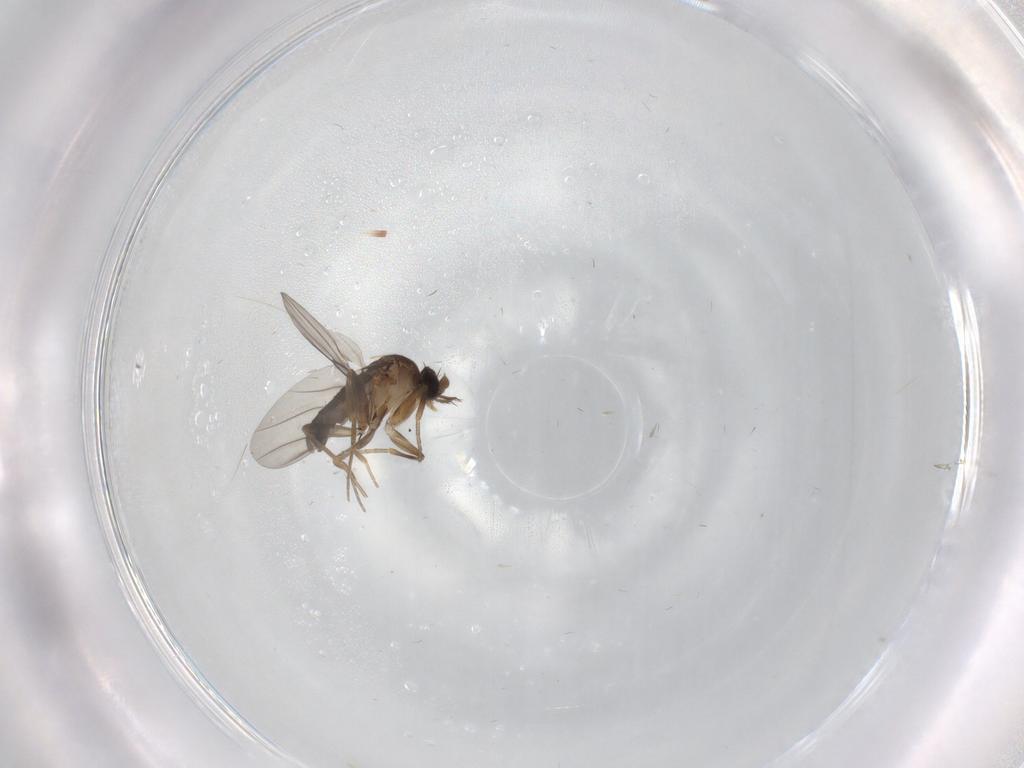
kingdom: Animalia
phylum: Arthropoda
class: Insecta
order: Diptera
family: Phoridae
